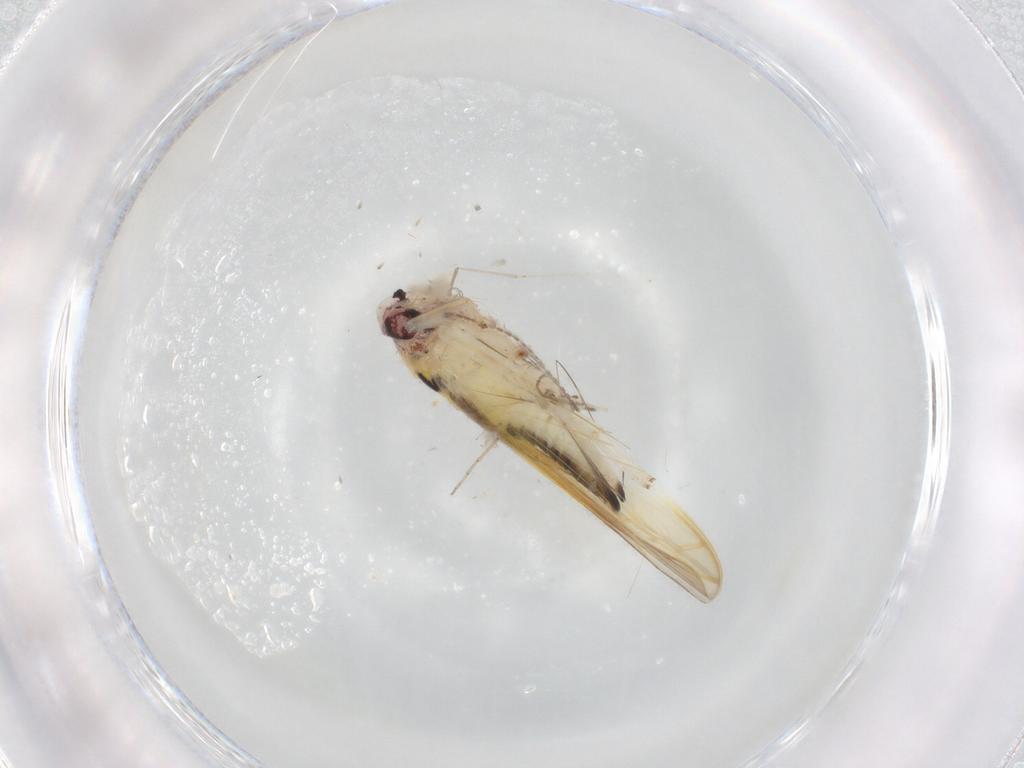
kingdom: Animalia
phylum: Arthropoda
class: Insecta
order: Hemiptera
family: Cicadellidae
